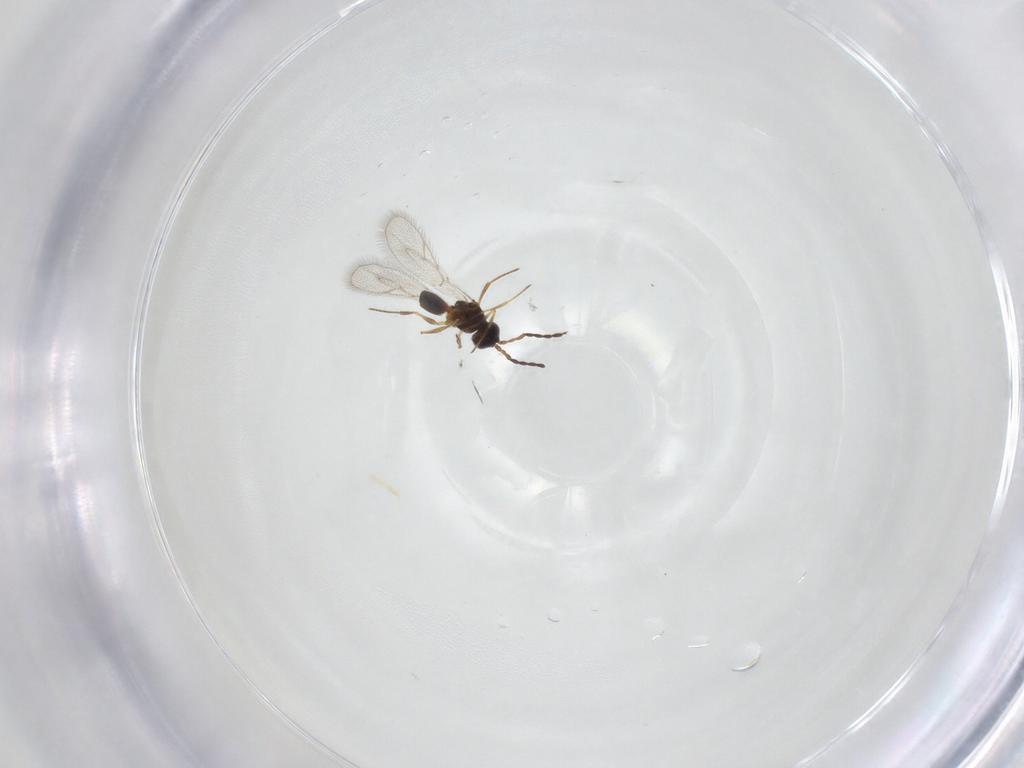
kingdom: Animalia
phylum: Arthropoda
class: Insecta
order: Hymenoptera
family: Figitidae
